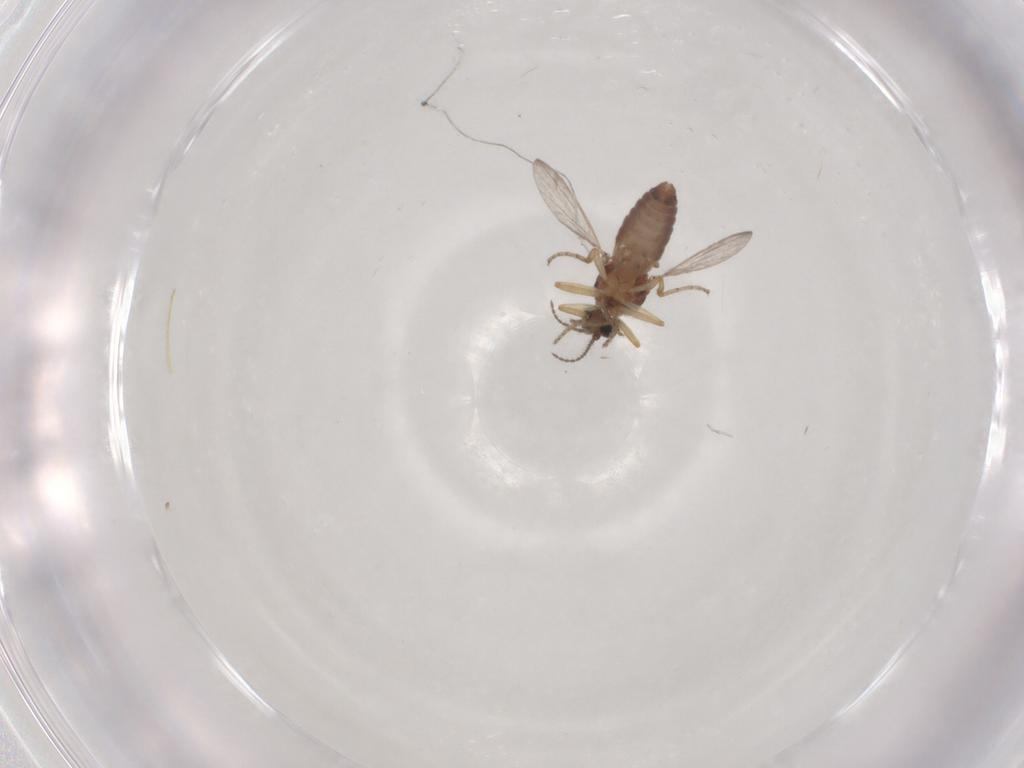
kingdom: Animalia
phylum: Arthropoda
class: Insecta
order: Diptera
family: Ceratopogonidae
